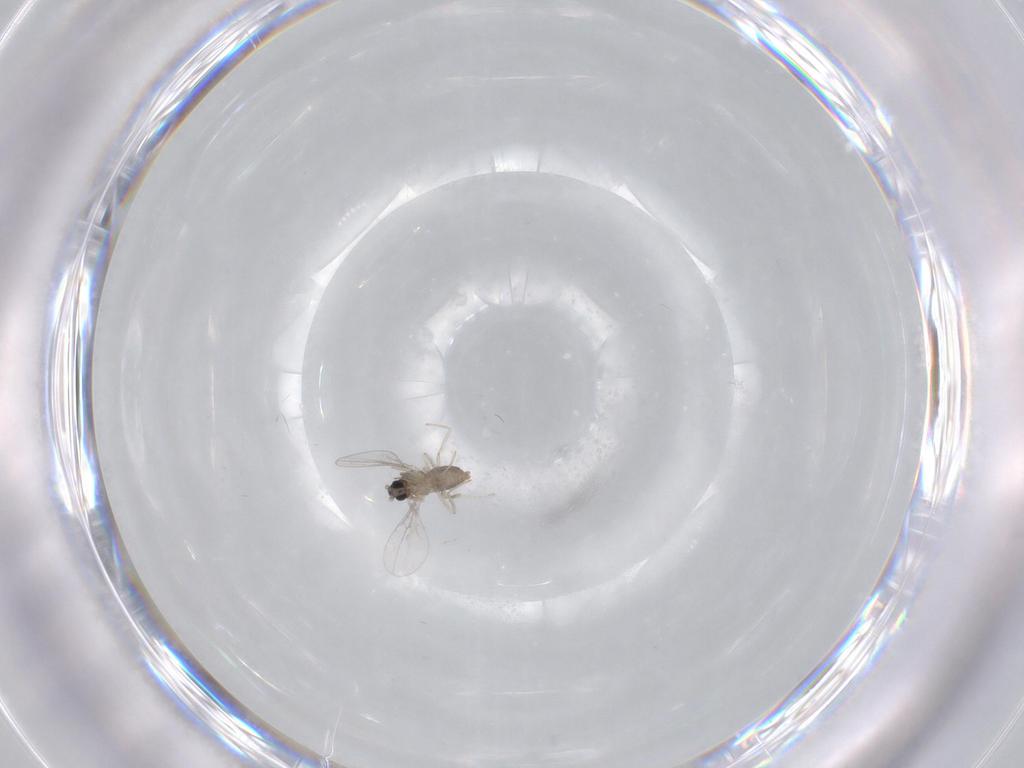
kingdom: Animalia
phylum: Arthropoda
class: Insecta
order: Diptera
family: Cecidomyiidae
